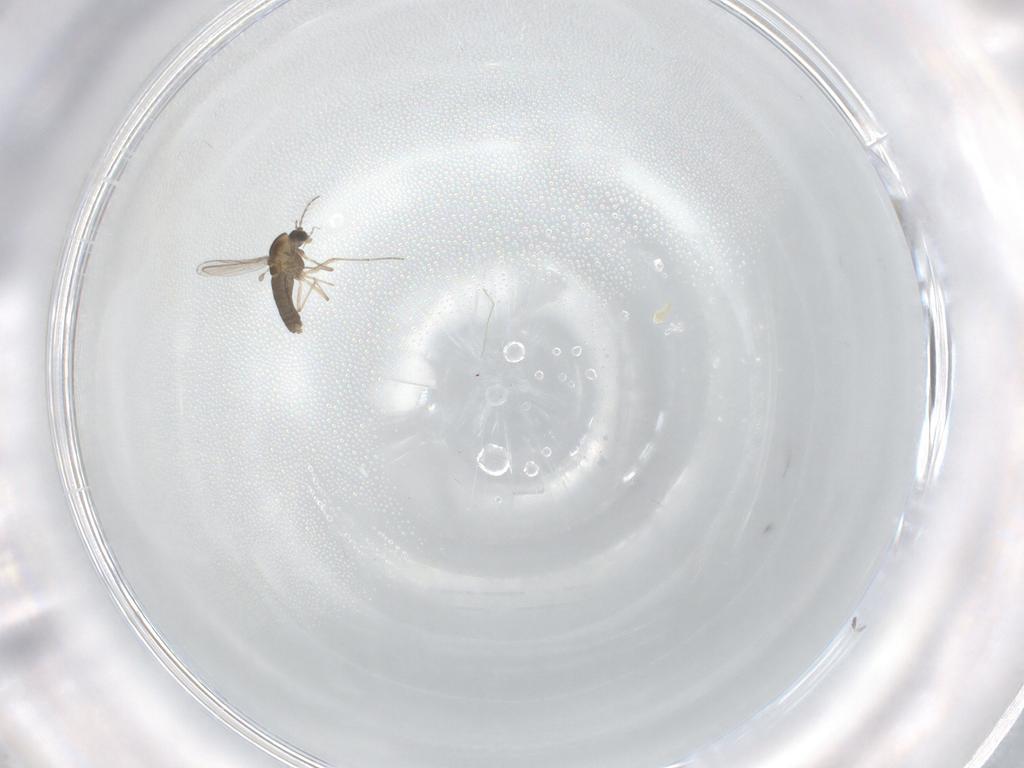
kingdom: Animalia
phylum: Arthropoda
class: Insecta
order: Diptera
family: Chironomidae
